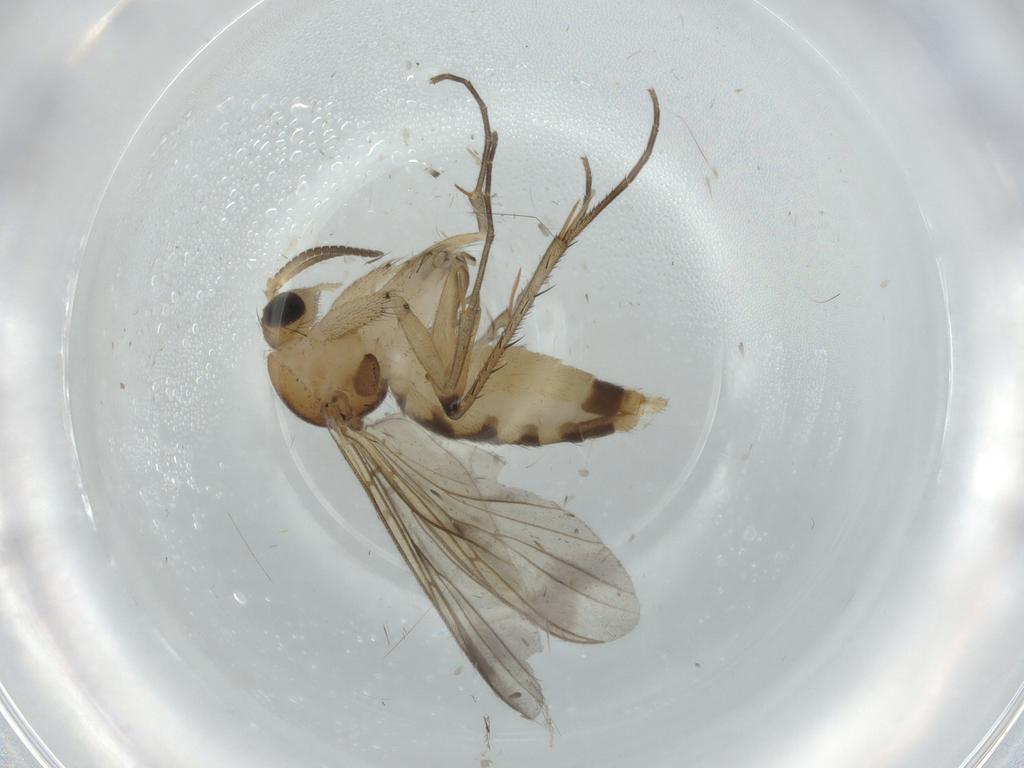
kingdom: Animalia
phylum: Arthropoda
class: Insecta
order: Diptera
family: Sciaridae
